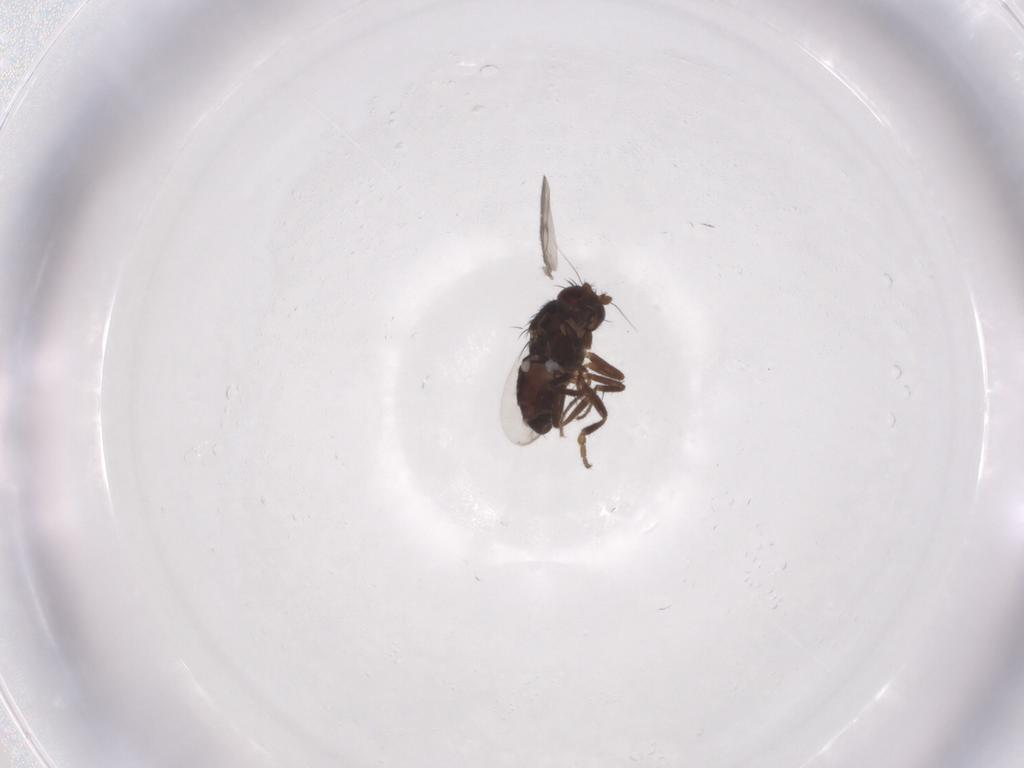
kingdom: Animalia
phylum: Arthropoda
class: Insecta
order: Diptera
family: Sphaeroceridae
